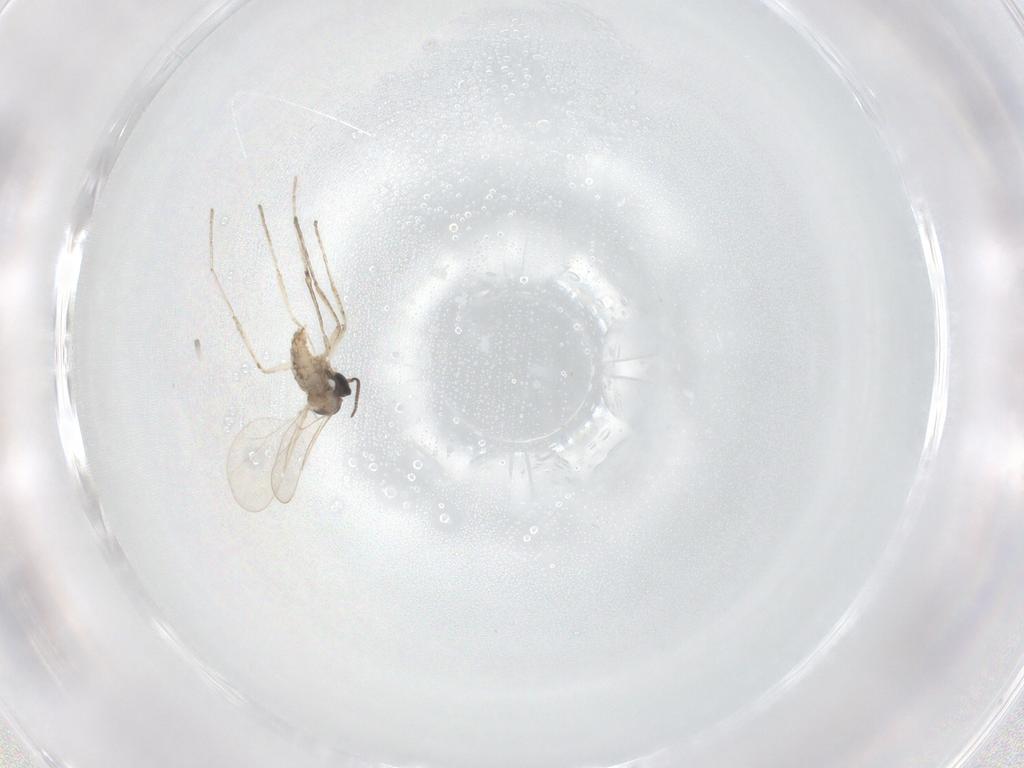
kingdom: Animalia
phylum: Arthropoda
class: Insecta
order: Diptera
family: Cecidomyiidae
